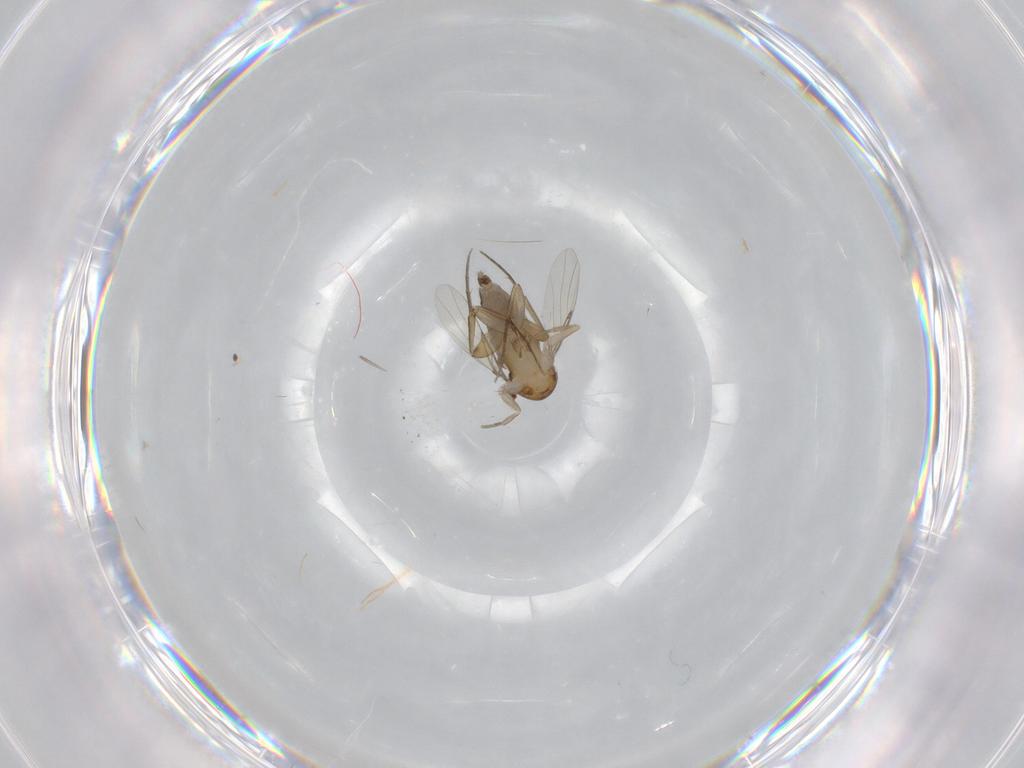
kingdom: Animalia
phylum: Arthropoda
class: Insecta
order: Diptera
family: Phoridae
